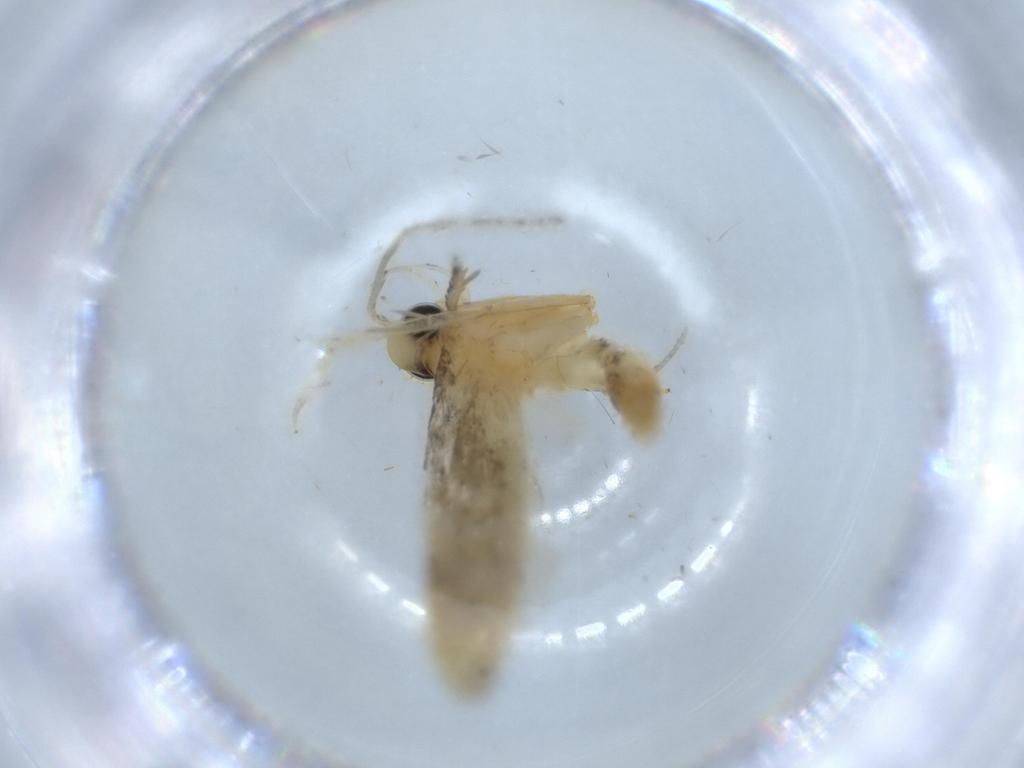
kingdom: Animalia
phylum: Arthropoda
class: Insecta
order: Lepidoptera
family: Autostichidae
